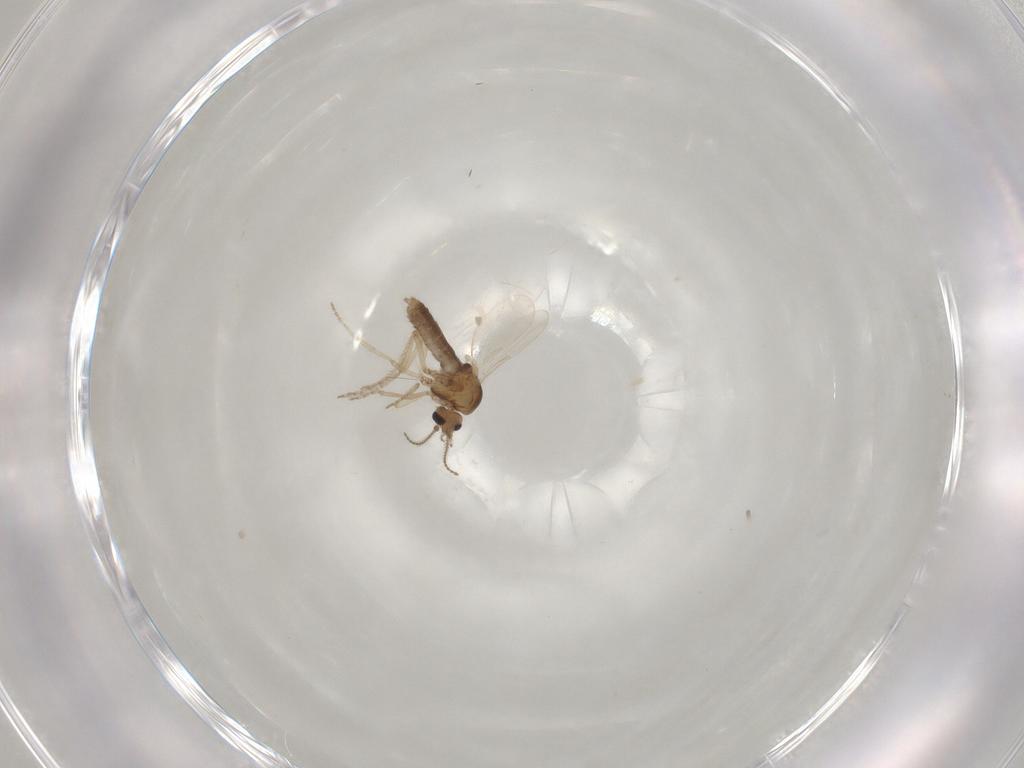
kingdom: Animalia
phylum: Arthropoda
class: Insecta
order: Diptera
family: Ceratopogonidae
